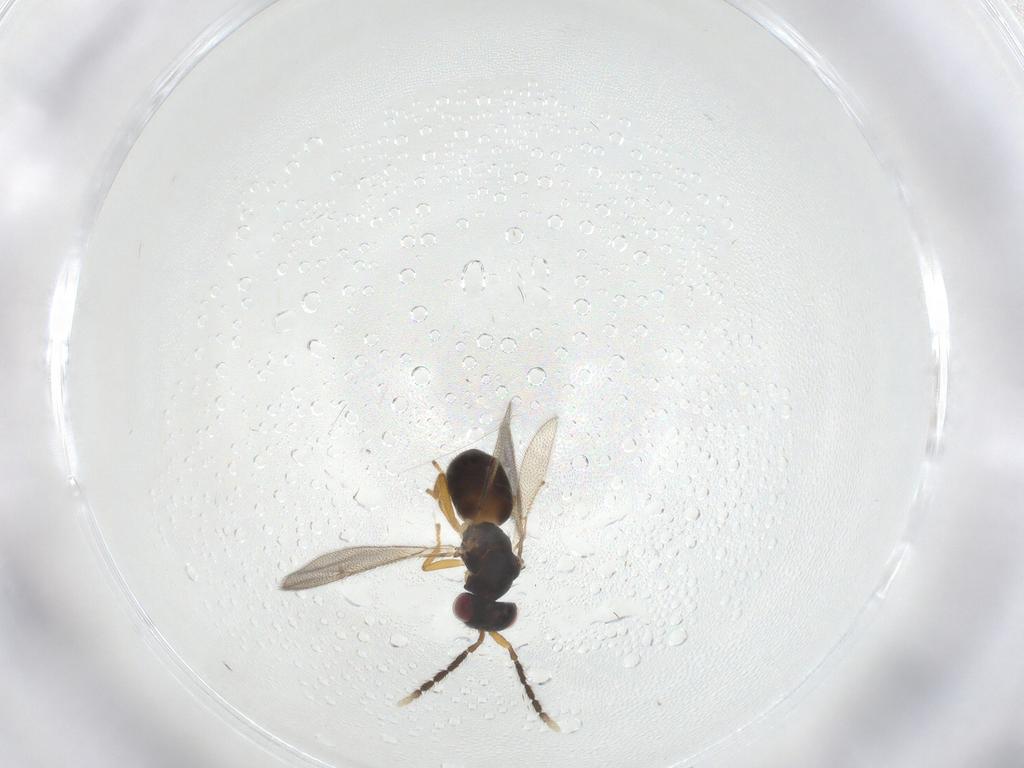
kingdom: Animalia
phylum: Arthropoda
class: Insecta
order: Hymenoptera
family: Eulophidae
